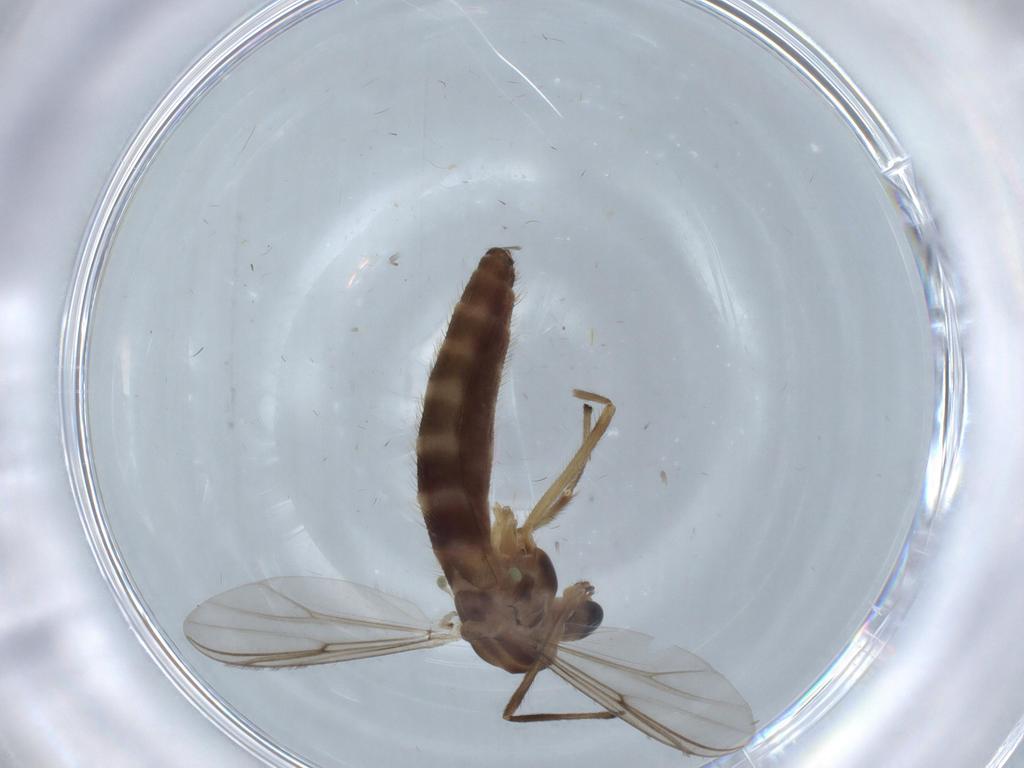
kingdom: Animalia
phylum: Arthropoda
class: Insecta
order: Diptera
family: Chironomidae
